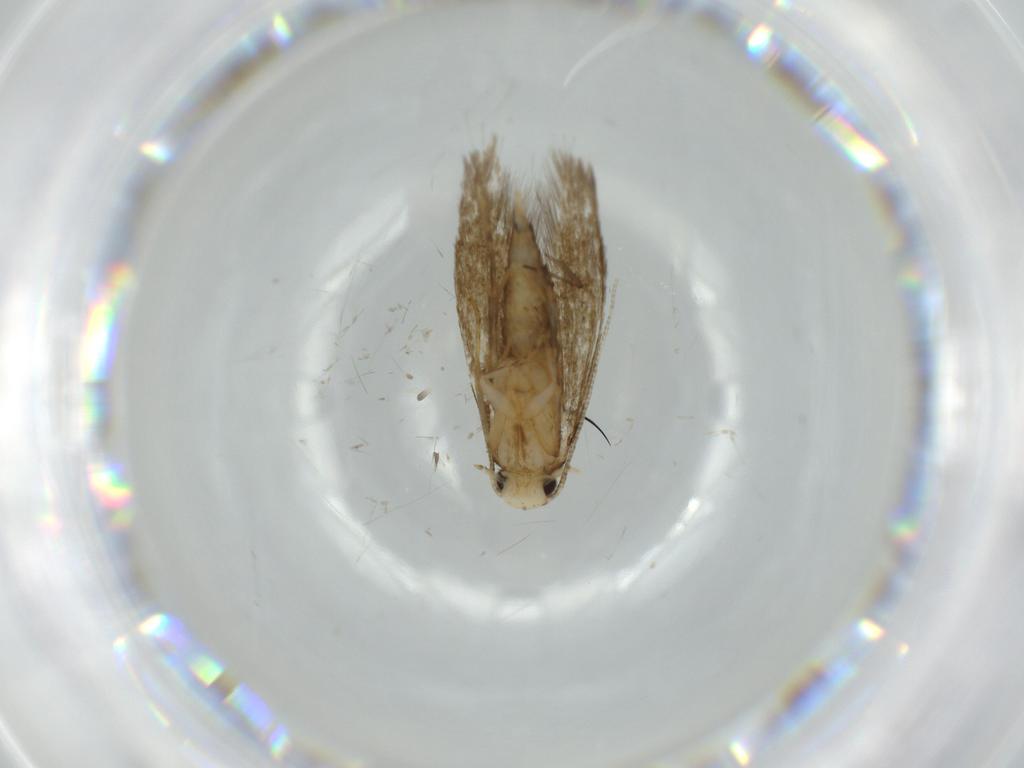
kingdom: Animalia
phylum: Arthropoda
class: Insecta
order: Lepidoptera
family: Tineidae
